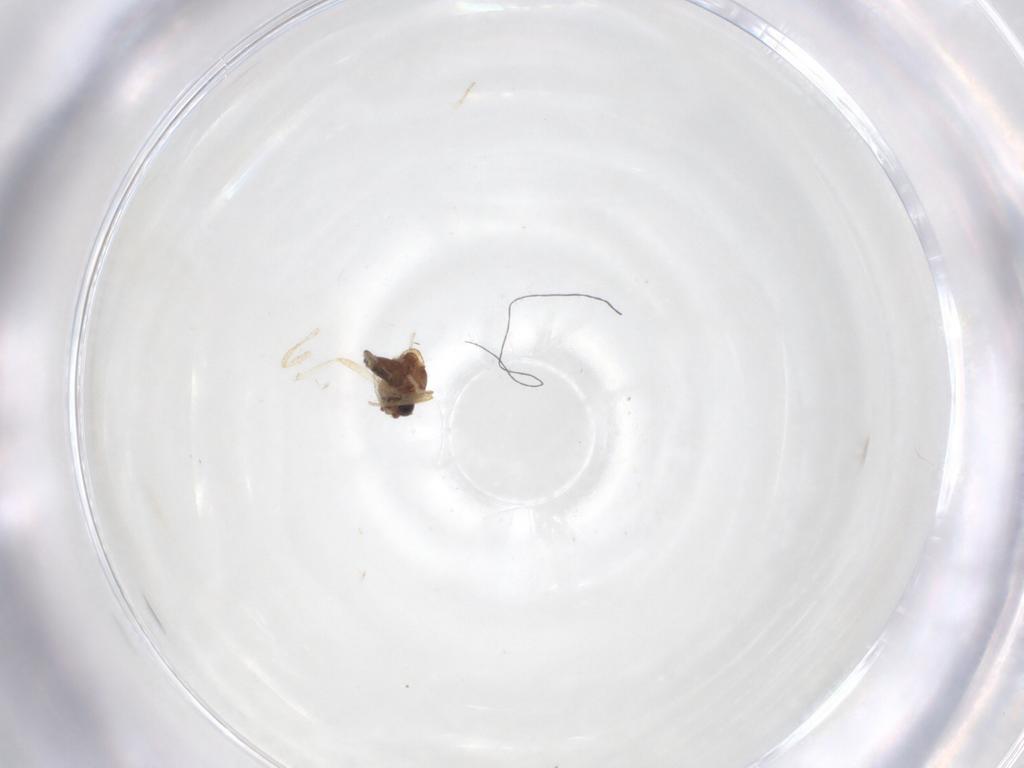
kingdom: Animalia
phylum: Arthropoda
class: Insecta
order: Diptera
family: Ceratopogonidae
